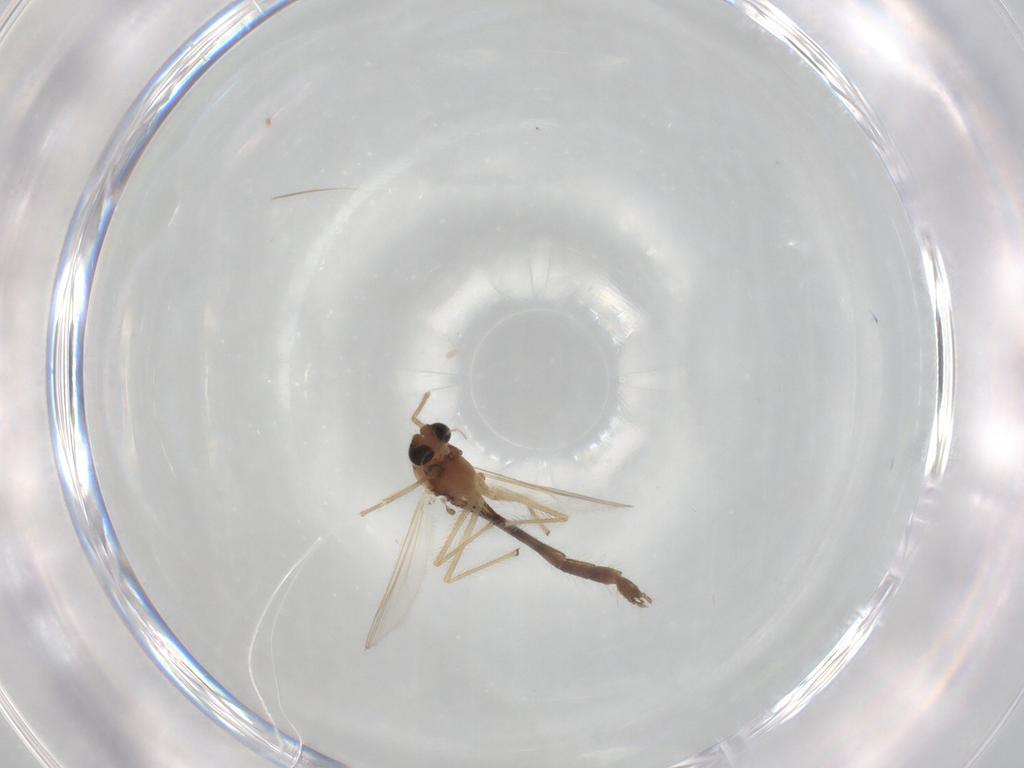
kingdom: Animalia
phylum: Arthropoda
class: Insecta
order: Diptera
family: Chironomidae
